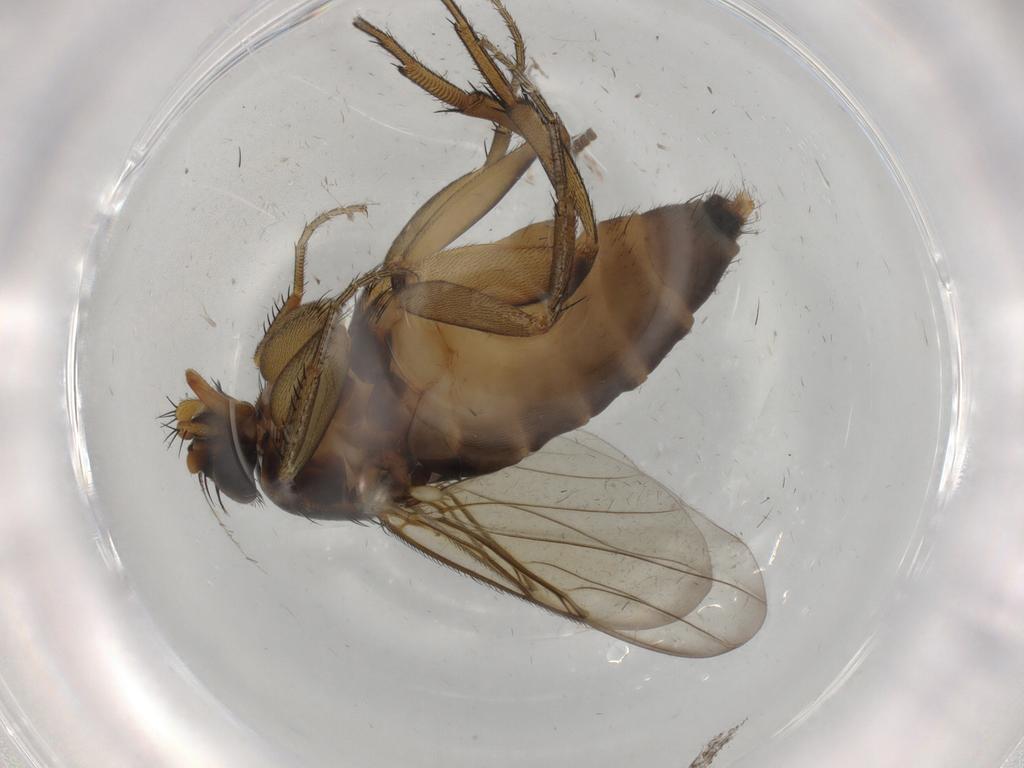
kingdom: Animalia
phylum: Arthropoda
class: Insecta
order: Diptera
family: Phoridae
